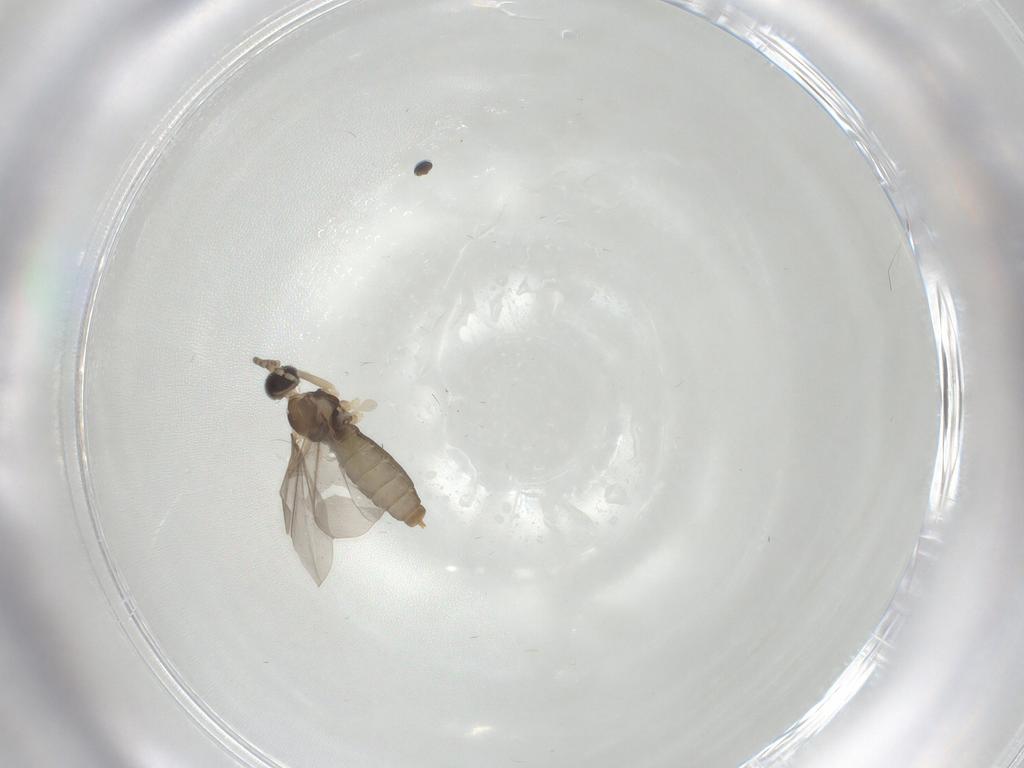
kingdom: Animalia
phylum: Arthropoda
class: Insecta
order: Diptera
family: Cecidomyiidae
